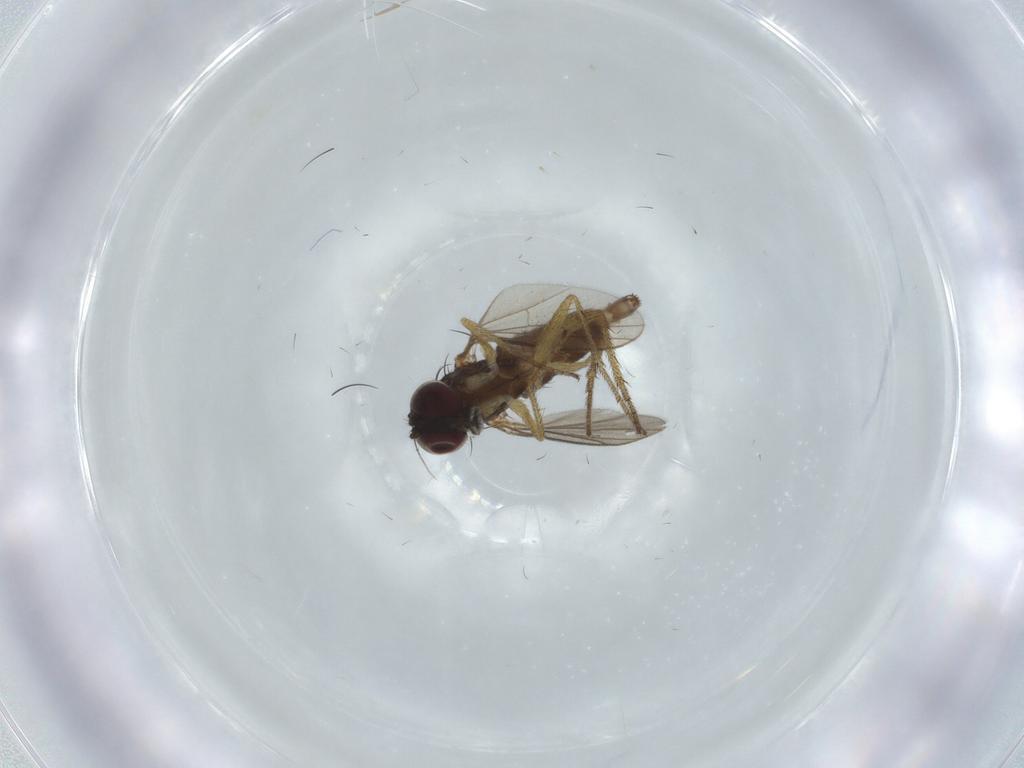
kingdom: Animalia
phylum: Arthropoda
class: Insecta
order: Diptera
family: Dolichopodidae
